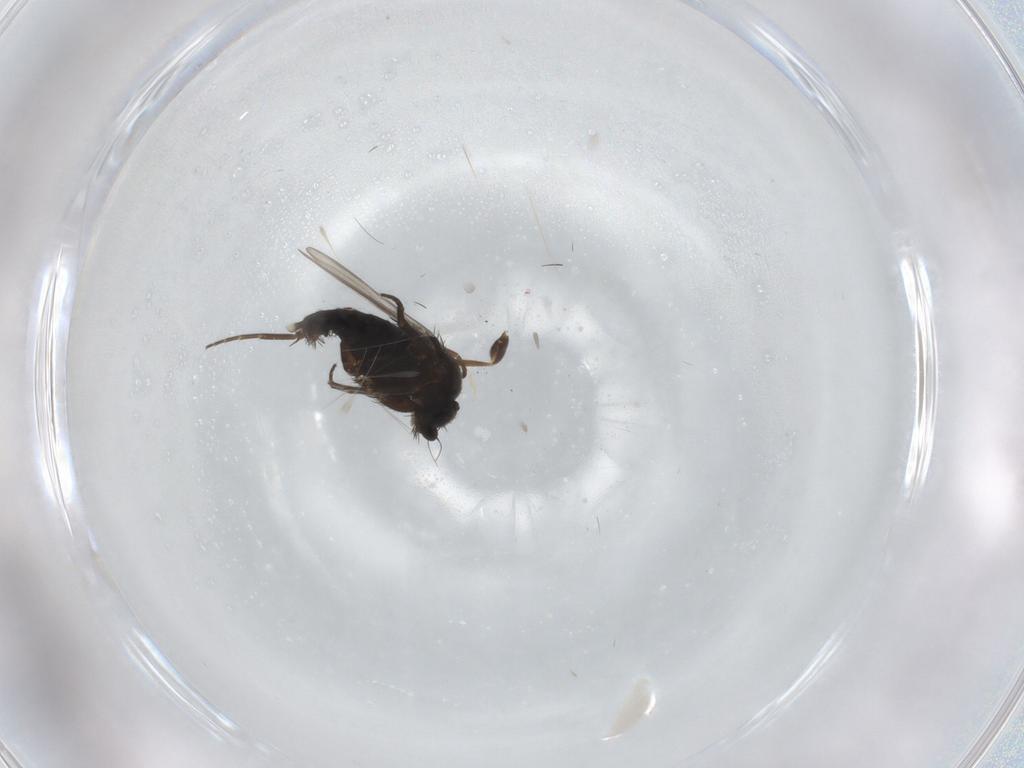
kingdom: Animalia
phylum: Arthropoda
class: Insecta
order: Diptera
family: Phoridae
